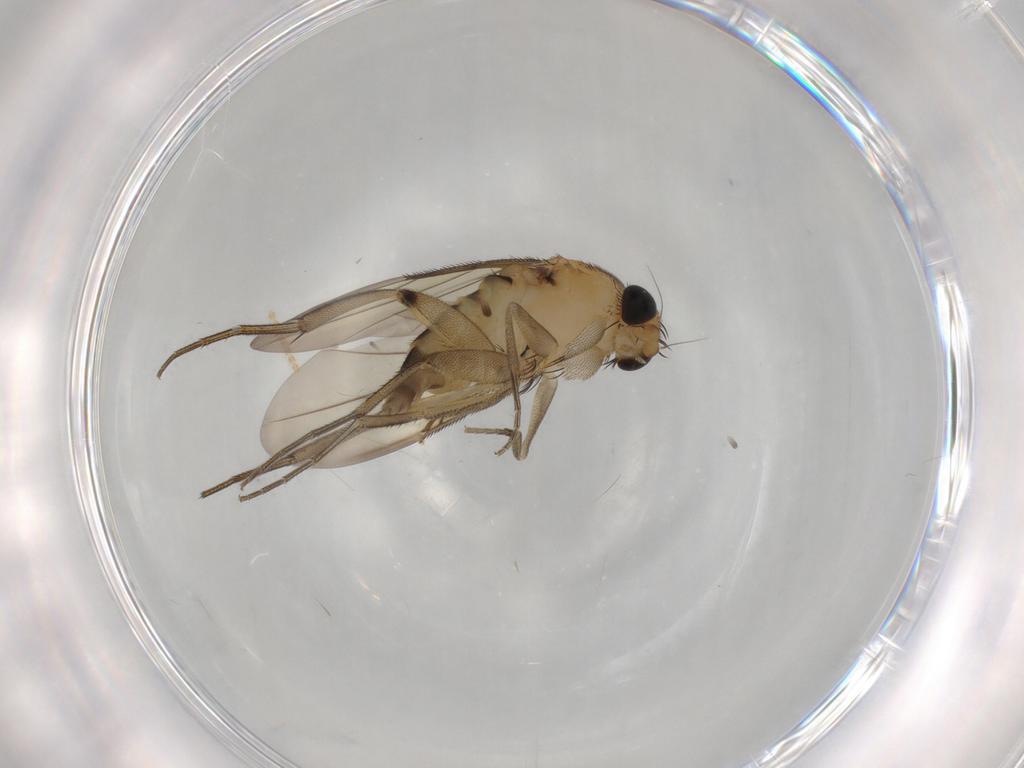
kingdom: Animalia
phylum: Arthropoda
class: Insecta
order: Diptera
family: Phoridae
